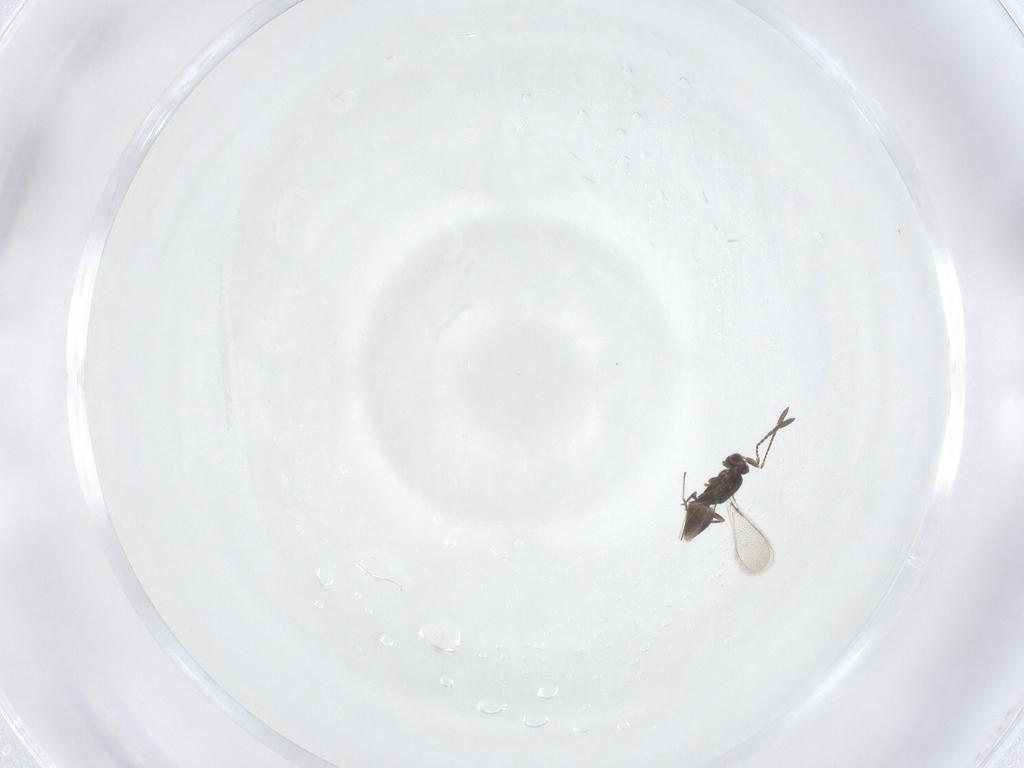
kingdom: Animalia
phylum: Arthropoda
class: Insecta
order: Hymenoptera
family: Mymaridae
